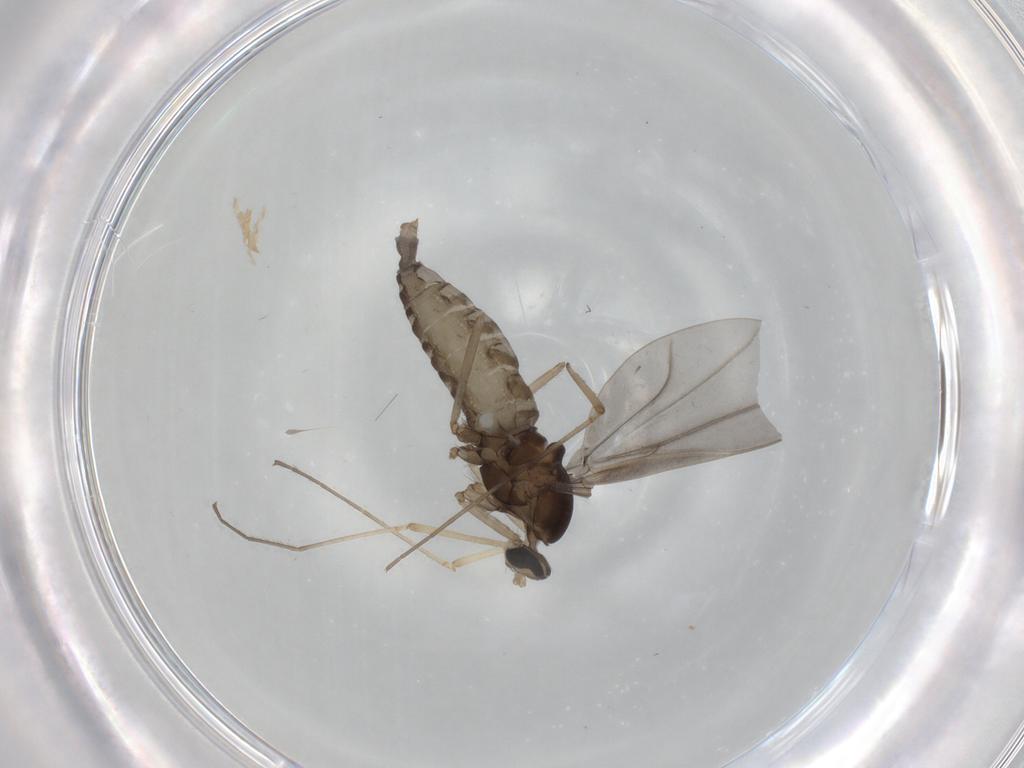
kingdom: Animalia
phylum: Arthropoda
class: Insecta
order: Diptera
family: Cecidomyiidae
